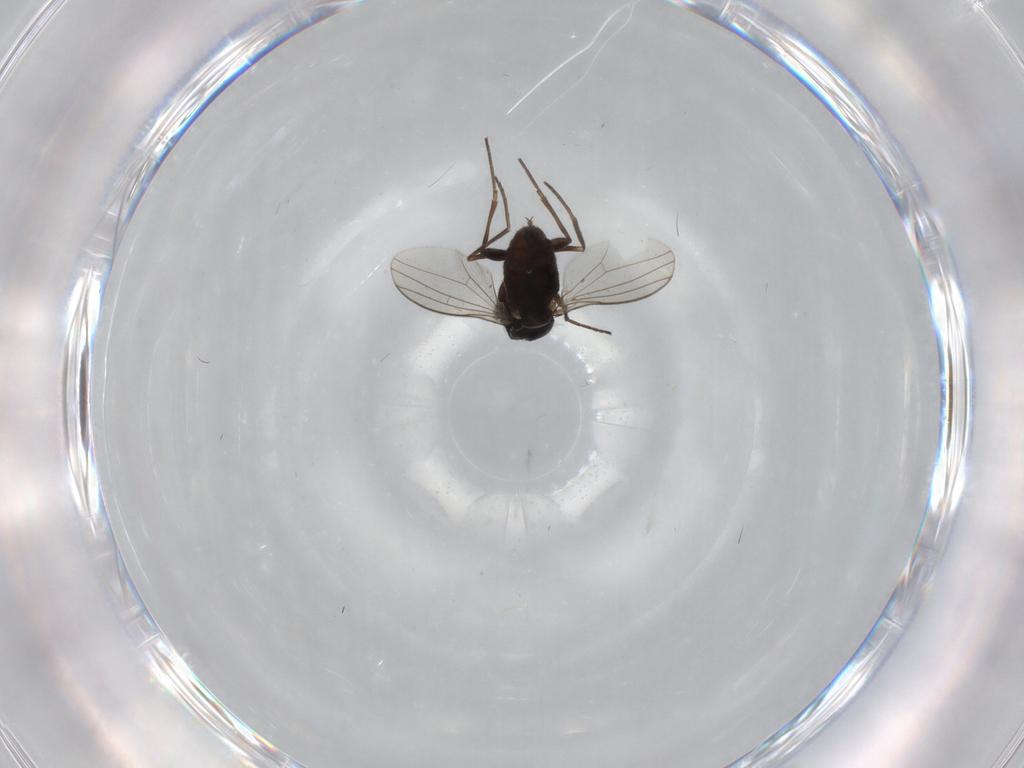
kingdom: Animalia
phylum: Arthropoda
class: Insecta
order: Diptera
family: Dolichopodidae
